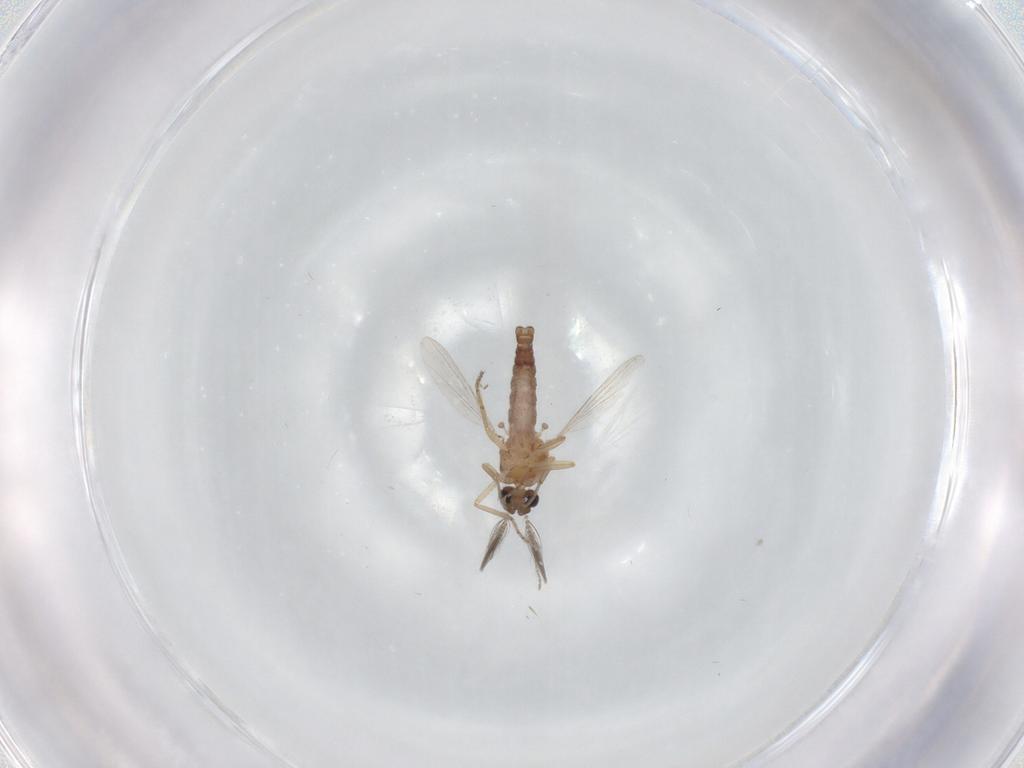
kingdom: Animalia
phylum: Arthropoda
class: Insecta
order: Diptera
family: Ceratopogonidae
